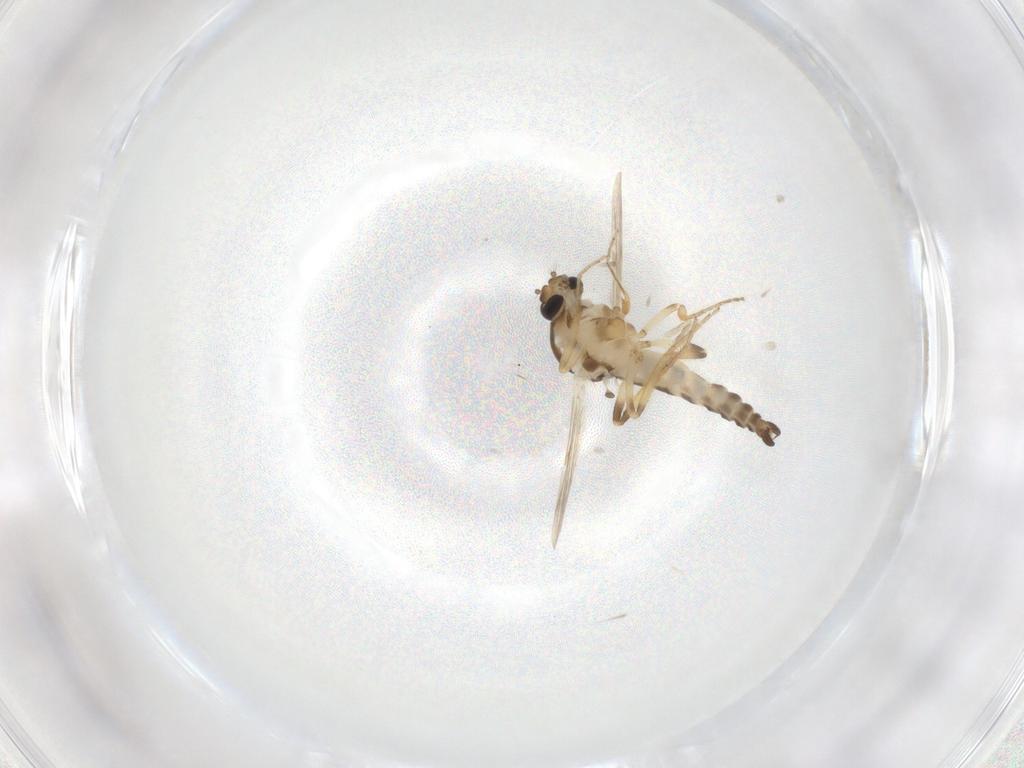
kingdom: Animalia
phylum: Arthropoda
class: Insecta
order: Diptera
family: Ceratopogonidae
